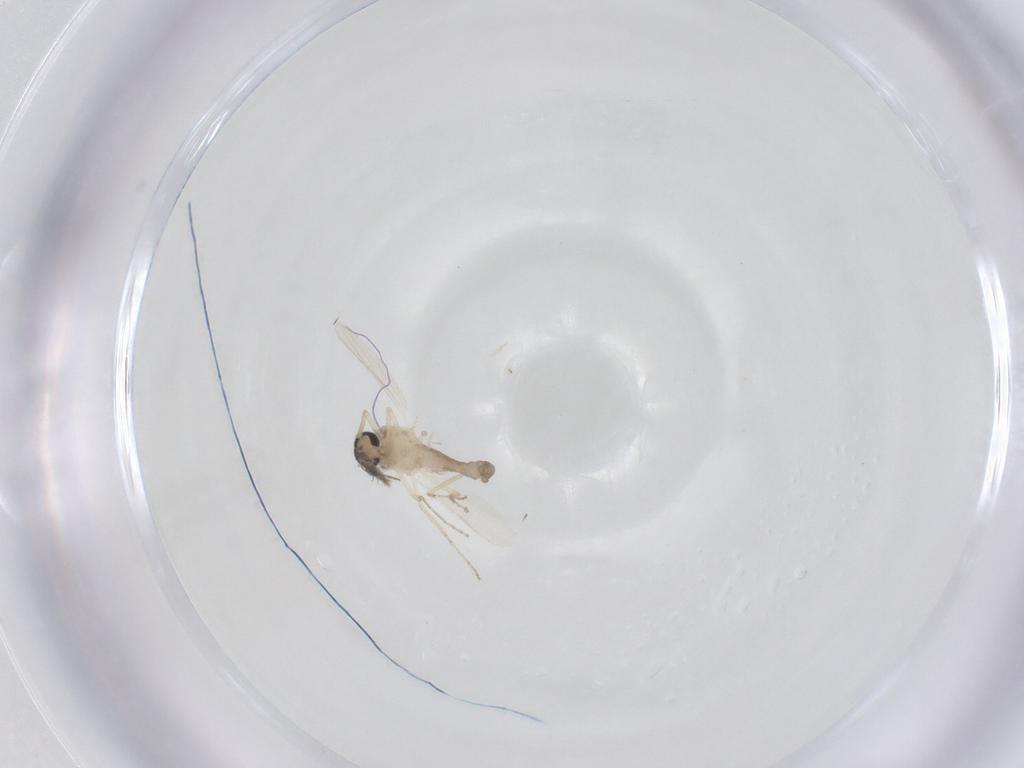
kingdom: Animalia
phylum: Arthropoda
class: Insecta
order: Diptera
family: Ceratopogonidae
